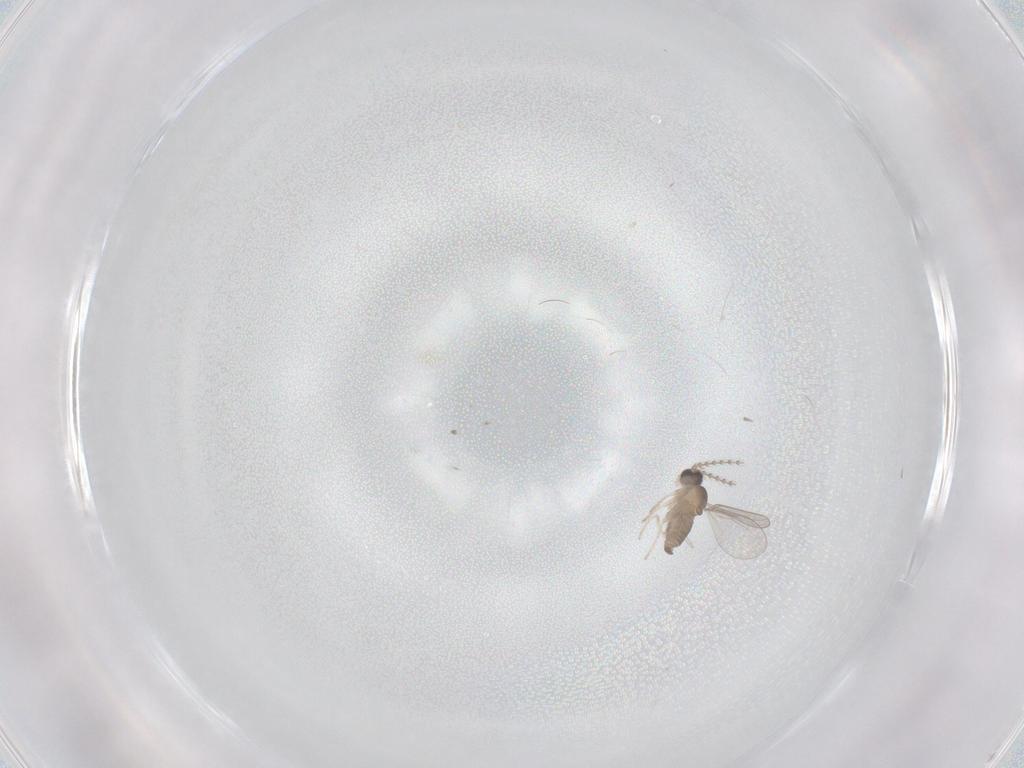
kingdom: Animalia
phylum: Arthropoda
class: Insecta
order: Diptera
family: Cecidomyiidae
